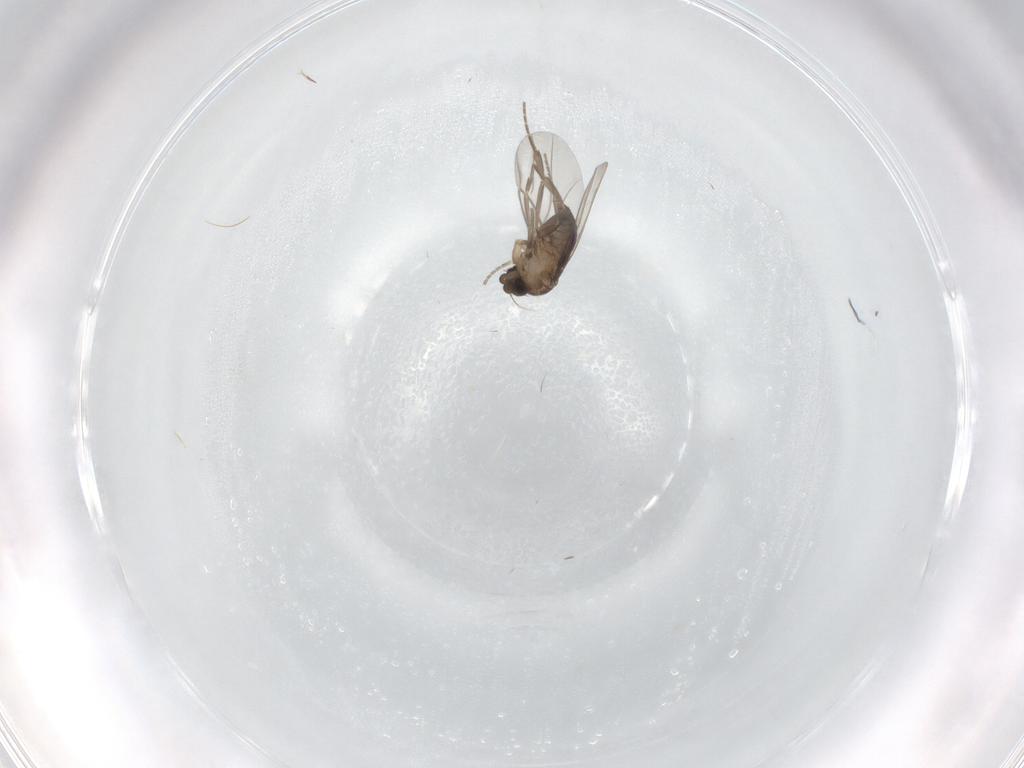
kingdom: Animalia
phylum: Arthropoda
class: Insecta
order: Diptera
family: Phoridae
